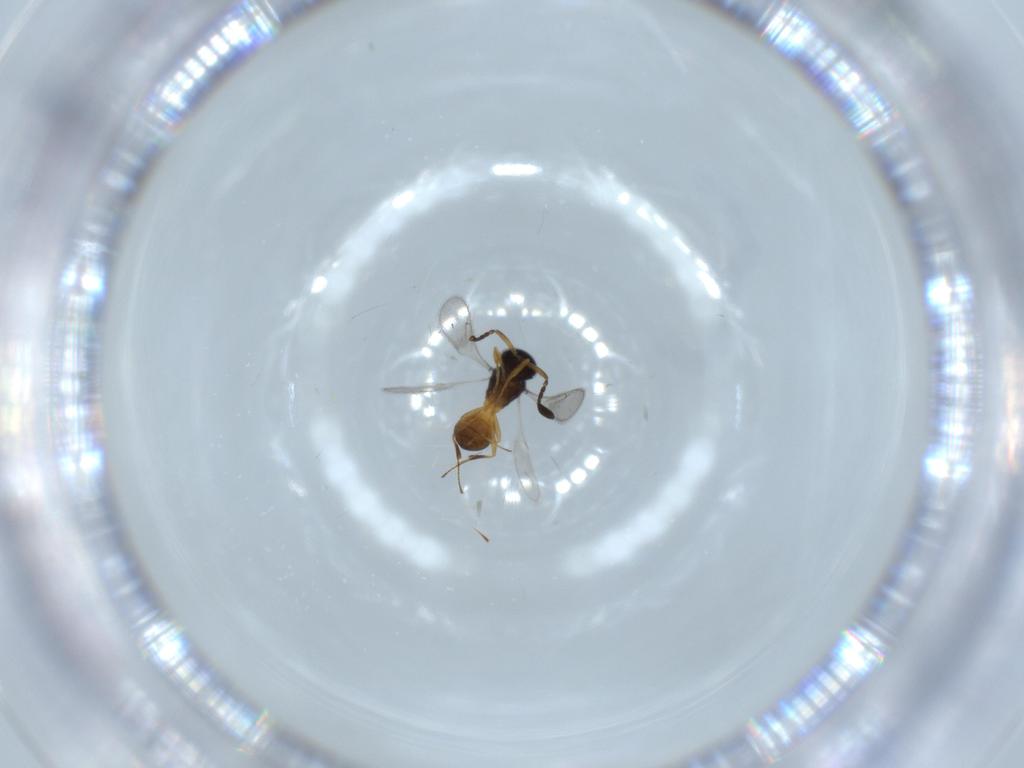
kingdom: Animalia
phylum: Arthropoda
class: Insecta
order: Hymenoptera
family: Scelionidae
